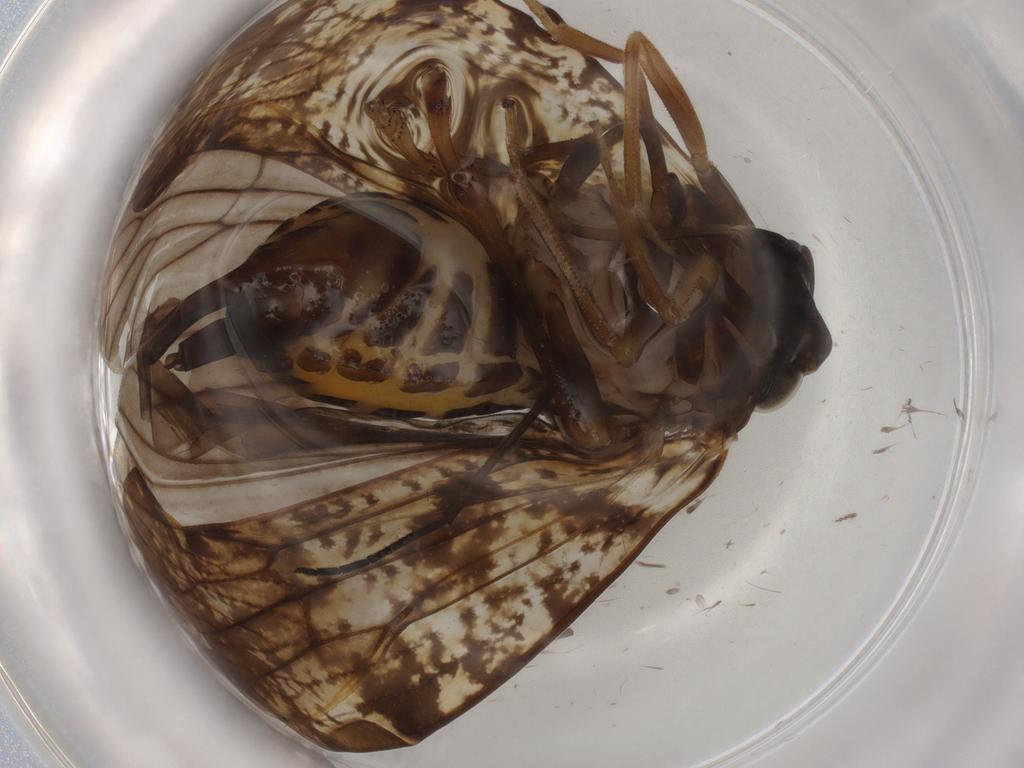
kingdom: Animalia
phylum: Arthropoda
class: Insecta
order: Hemiptera
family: Cixiidae
